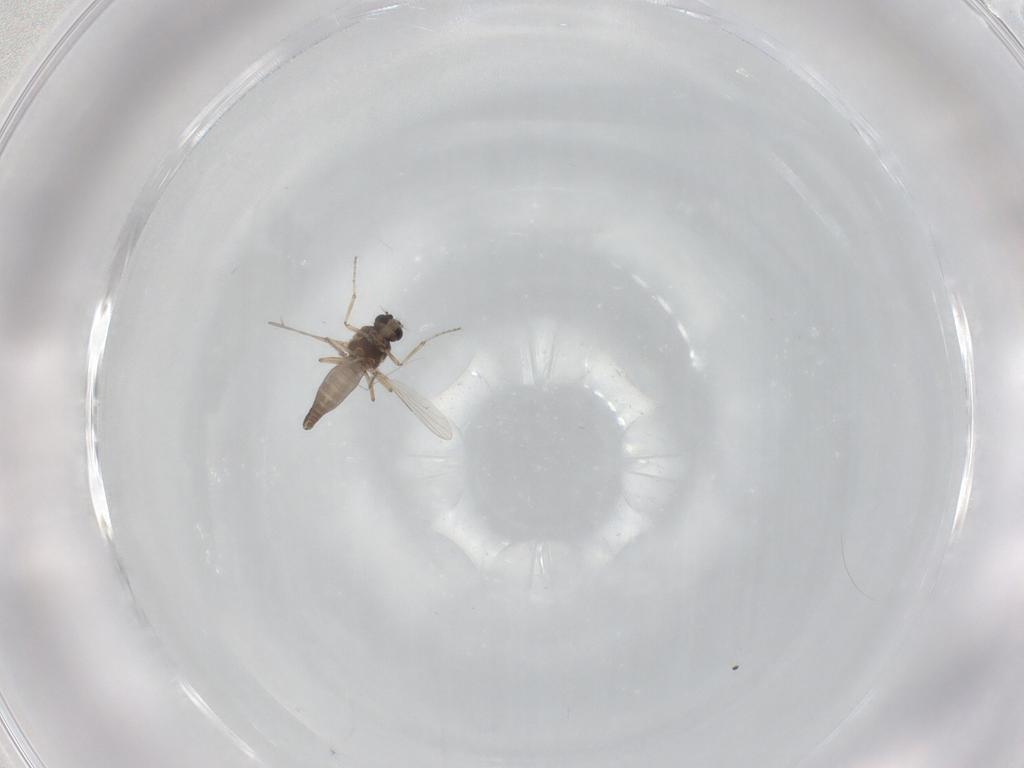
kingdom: Animalia
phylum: Arthropoda
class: Insecta
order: Diptera
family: Ceratopogonidae
